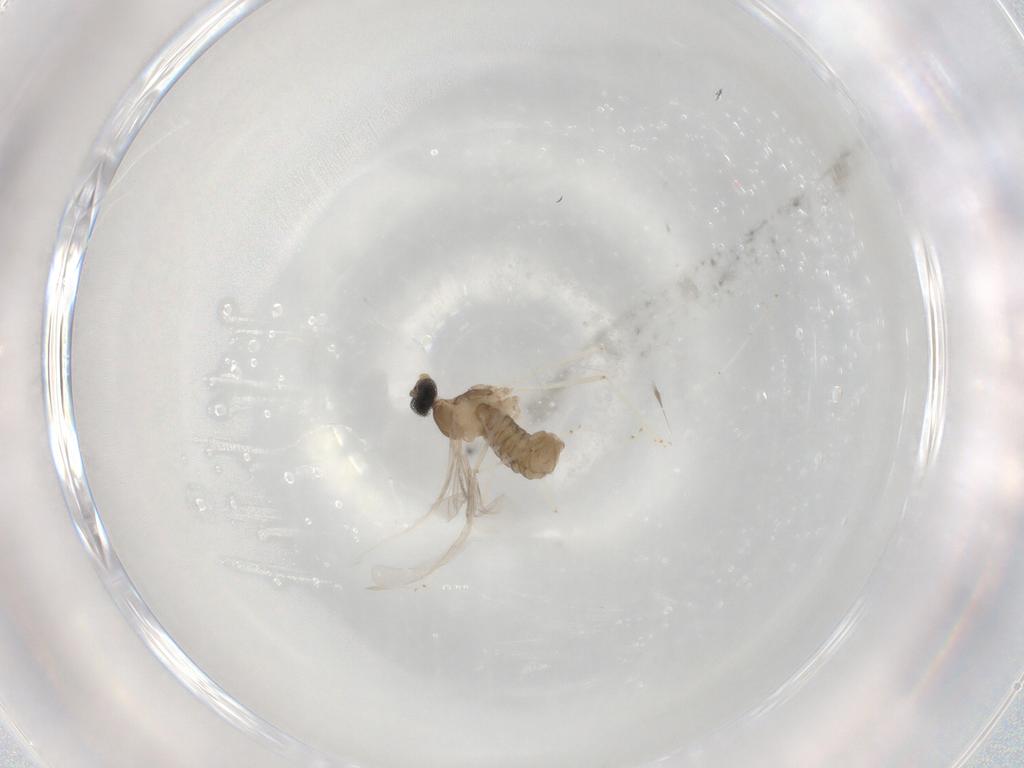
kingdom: Animalia
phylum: Arthropoda
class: Insecta
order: Diptera
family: Cecidomyiidae
